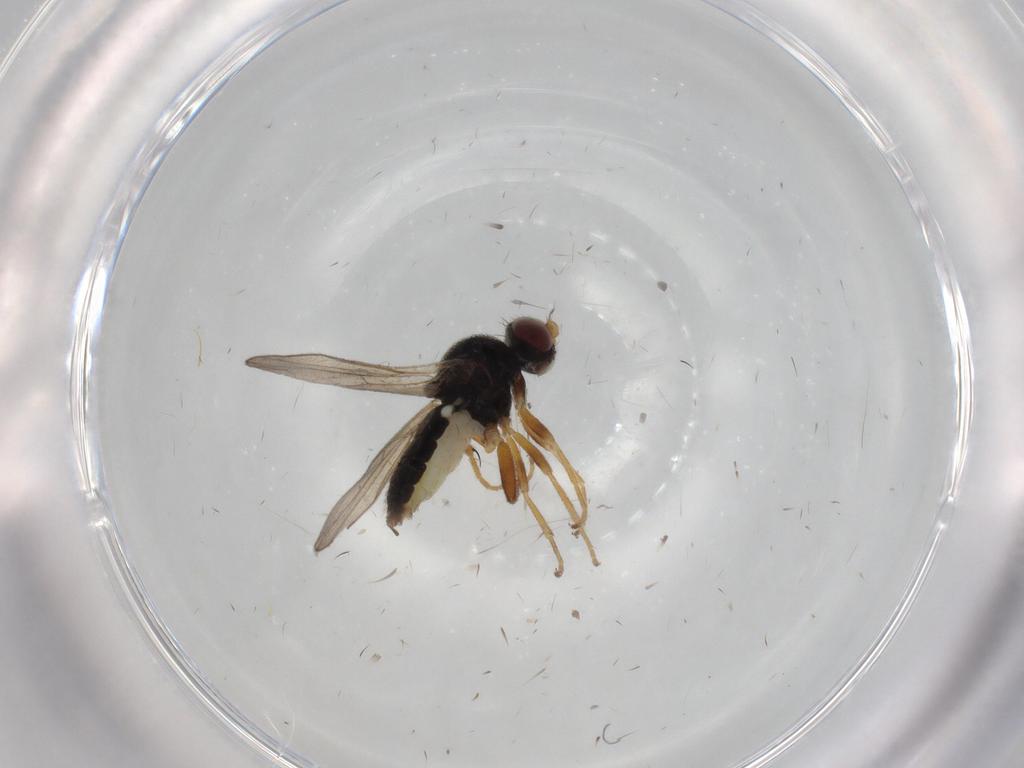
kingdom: Animalia
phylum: Arthropoda
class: Insecta
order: Diptera
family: Chloropidae
